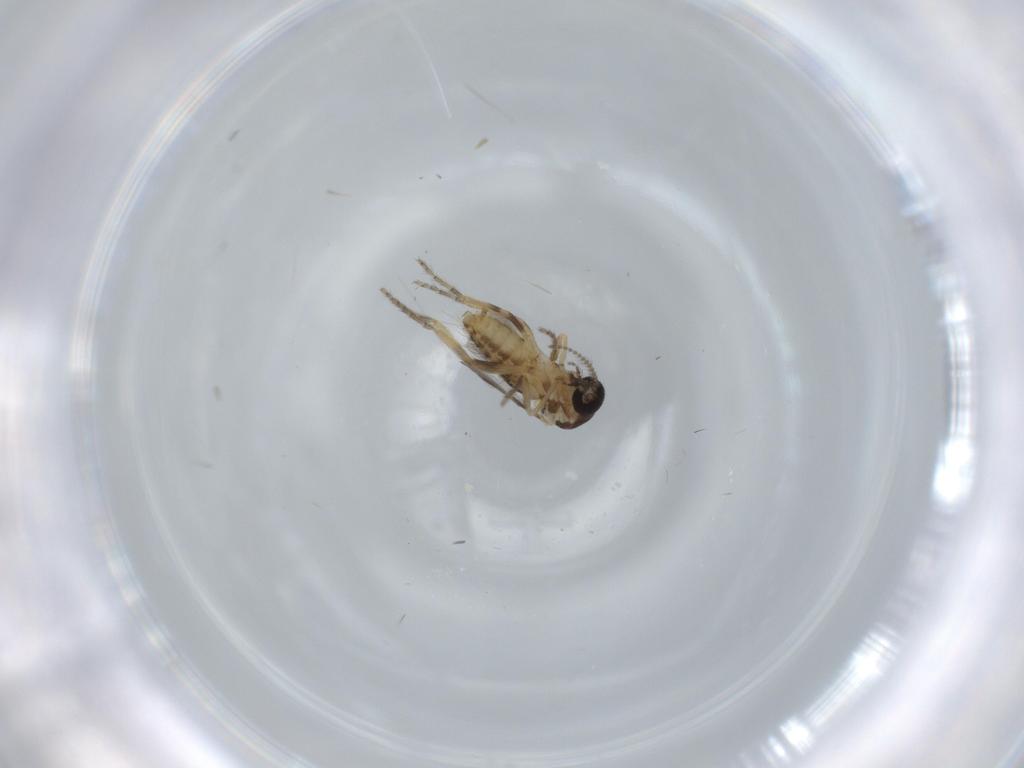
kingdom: Animalia
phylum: Arthropoda
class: Insecta
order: Diptera
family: Ceratopogonidae
